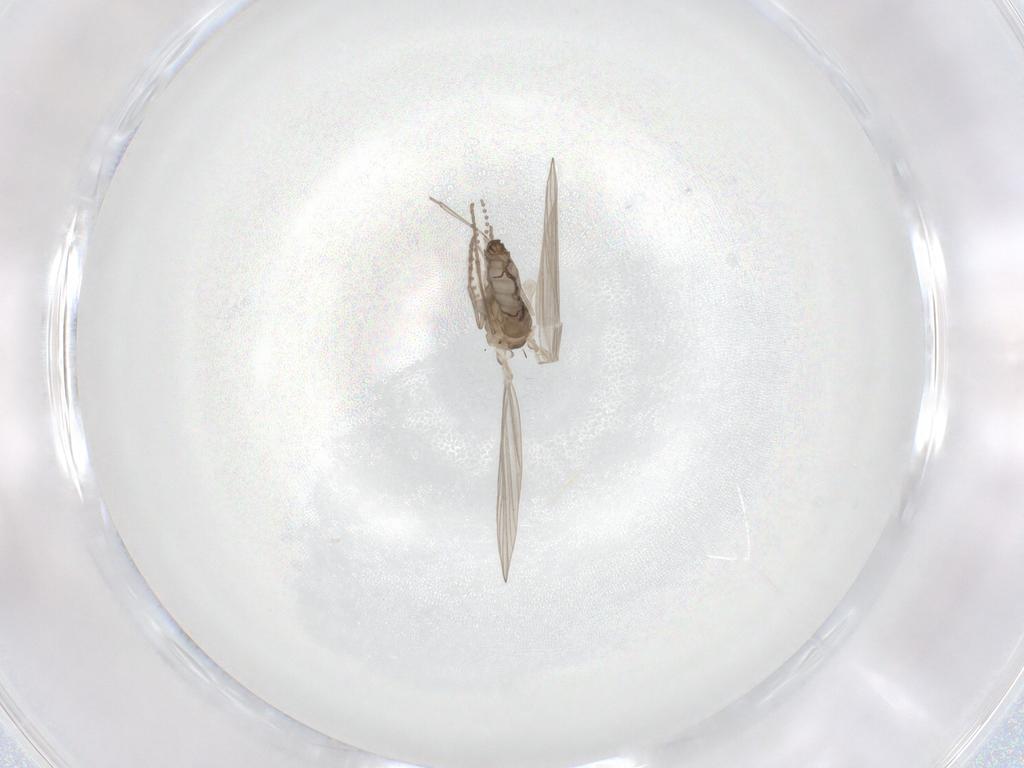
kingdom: Animalia
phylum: Arthropoda
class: Insecta
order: Diptera
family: Psychodidae
